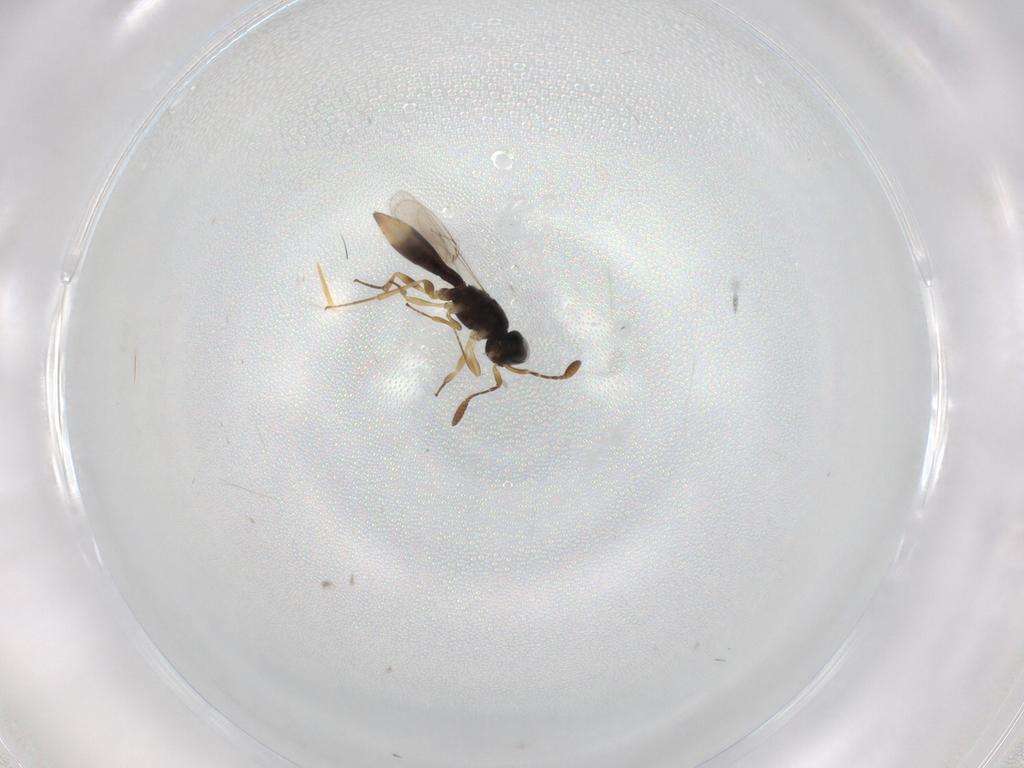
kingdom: Animalia
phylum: Arthropoda
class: Insecta
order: Hymenoptera
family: Scelionidae
